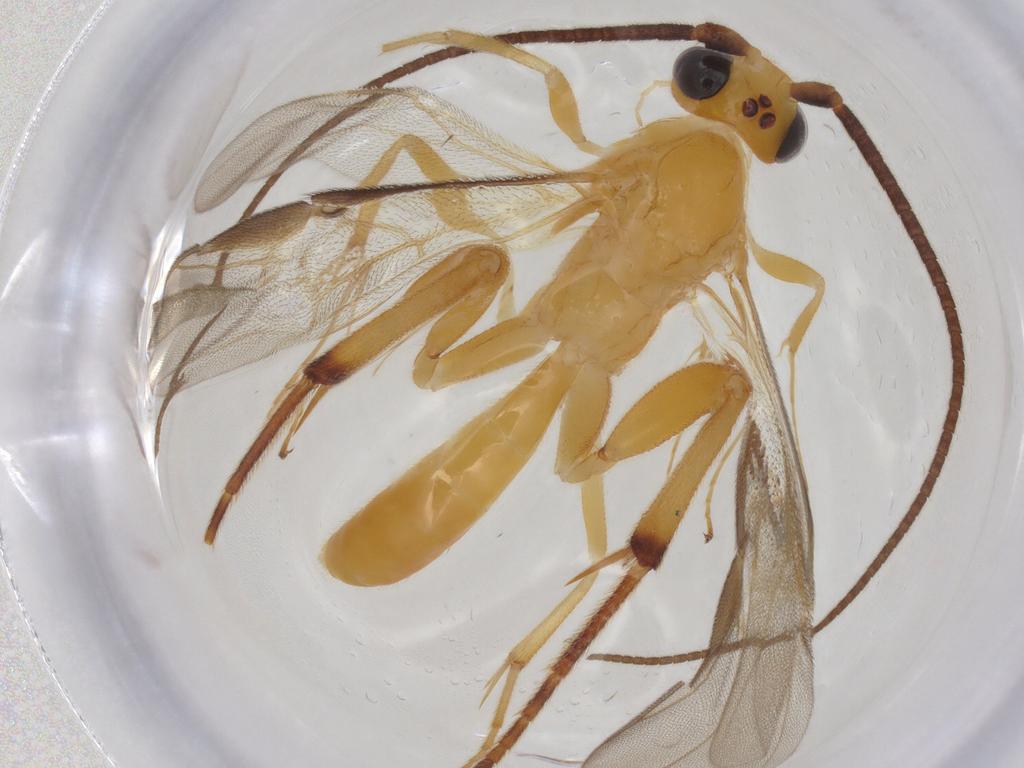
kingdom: Animalia
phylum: Arthropoda
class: Insecta
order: Hymenoptera
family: Braconidae
